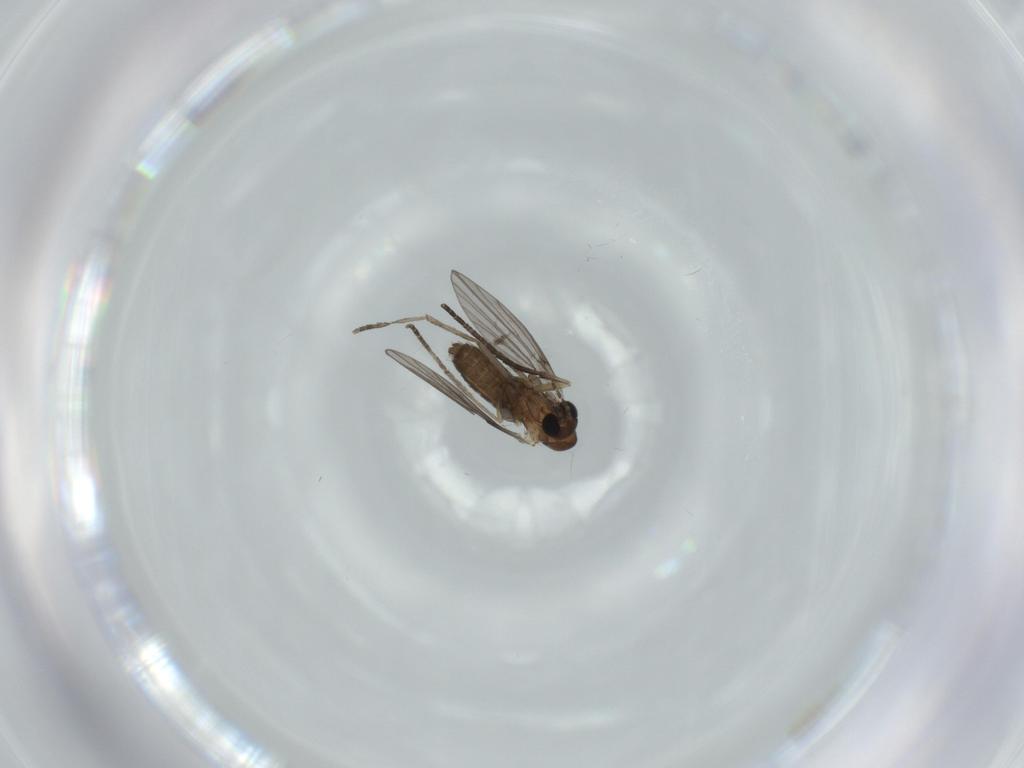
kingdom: Animalia
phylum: Arthropoda
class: Insecta
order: Diptera
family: Psychodidae
